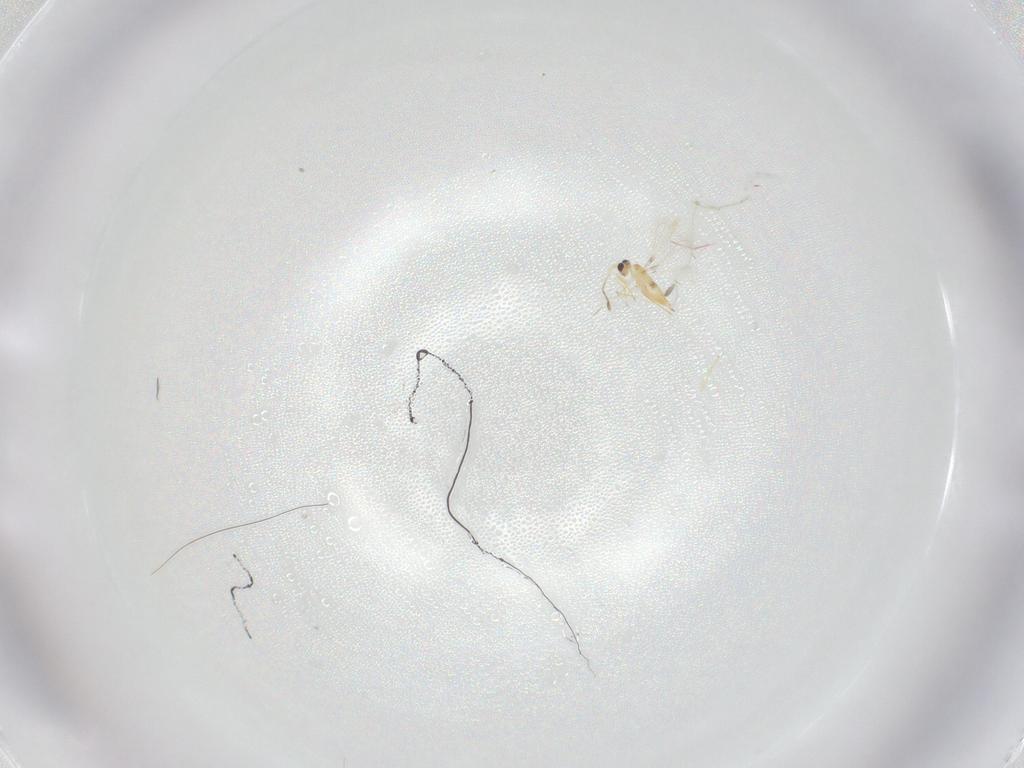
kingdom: Animalia
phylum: Arthropoda
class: Insecta
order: Hymenoptera
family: Mymaridae
